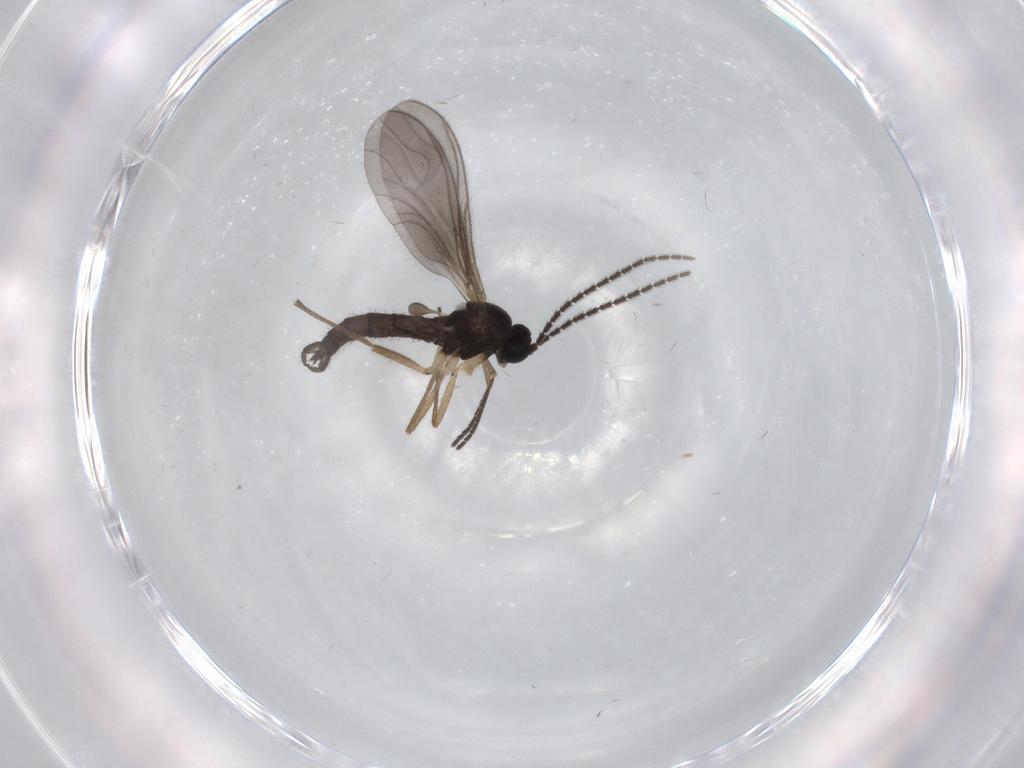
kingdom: Animalia
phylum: Arthropoda
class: Insecta
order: Diptera
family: Sciaridae
